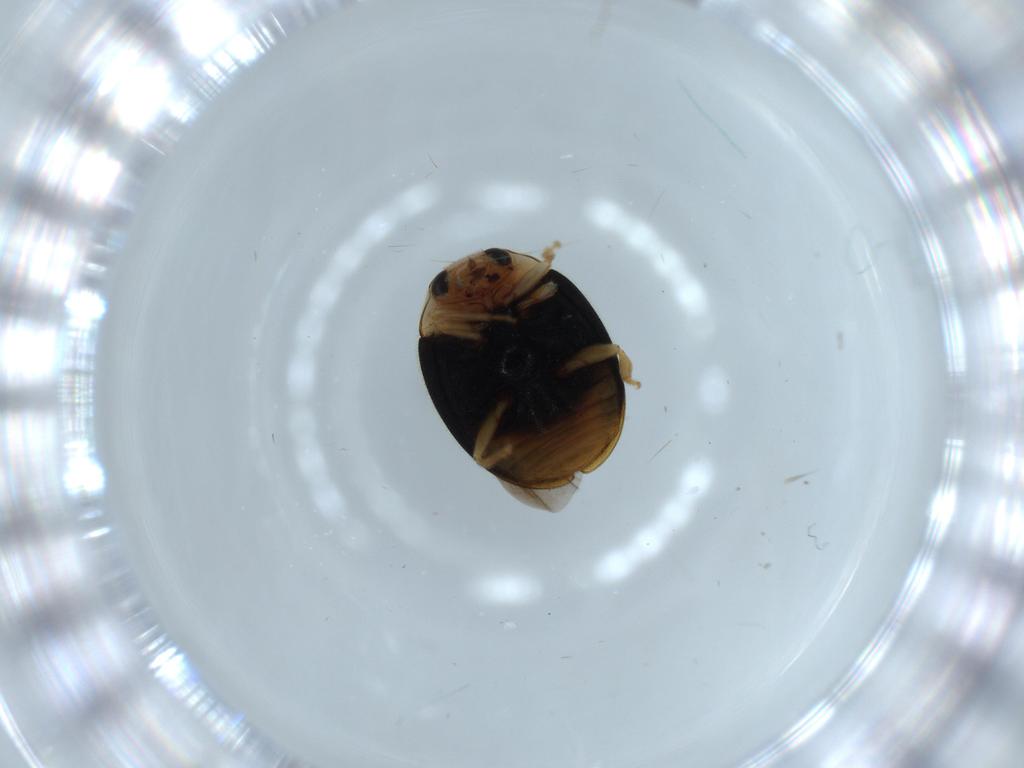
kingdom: Animalia
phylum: Arthropoda
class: Insecta
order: Coleoptera
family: Coccinellidae
